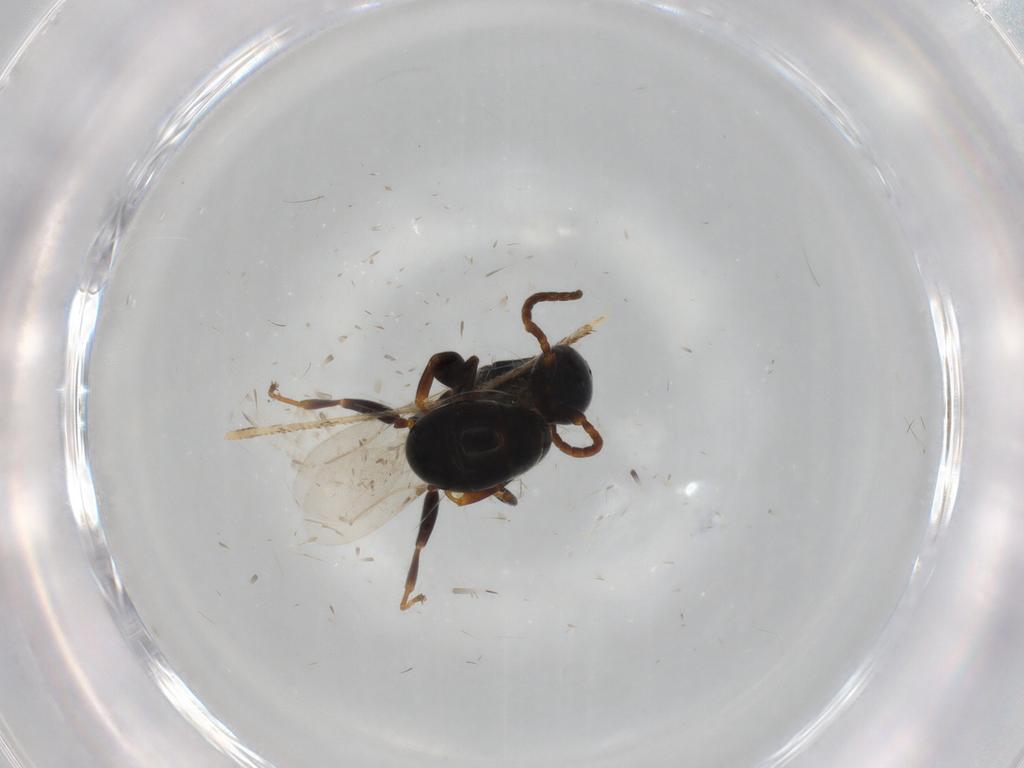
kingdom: Animalia
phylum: Arthropoda
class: Insecta
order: Hymenoptera
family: Bethylidae
